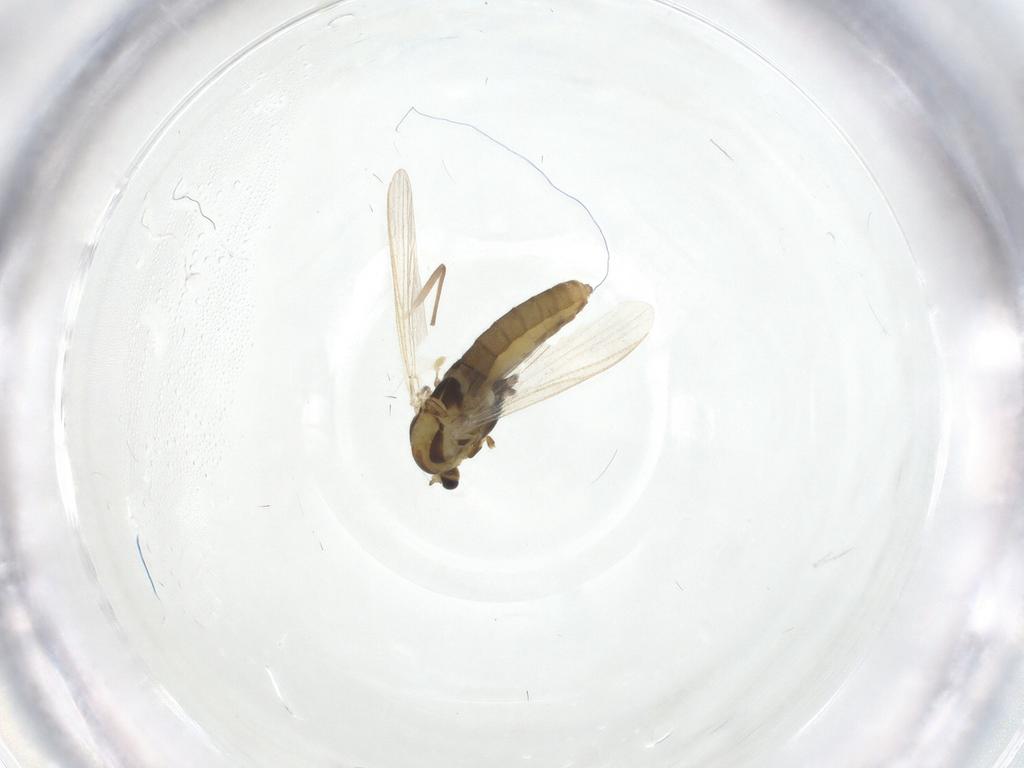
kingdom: Animalia
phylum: Arthropoda
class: Insecta
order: Diptera
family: Chironomidae
